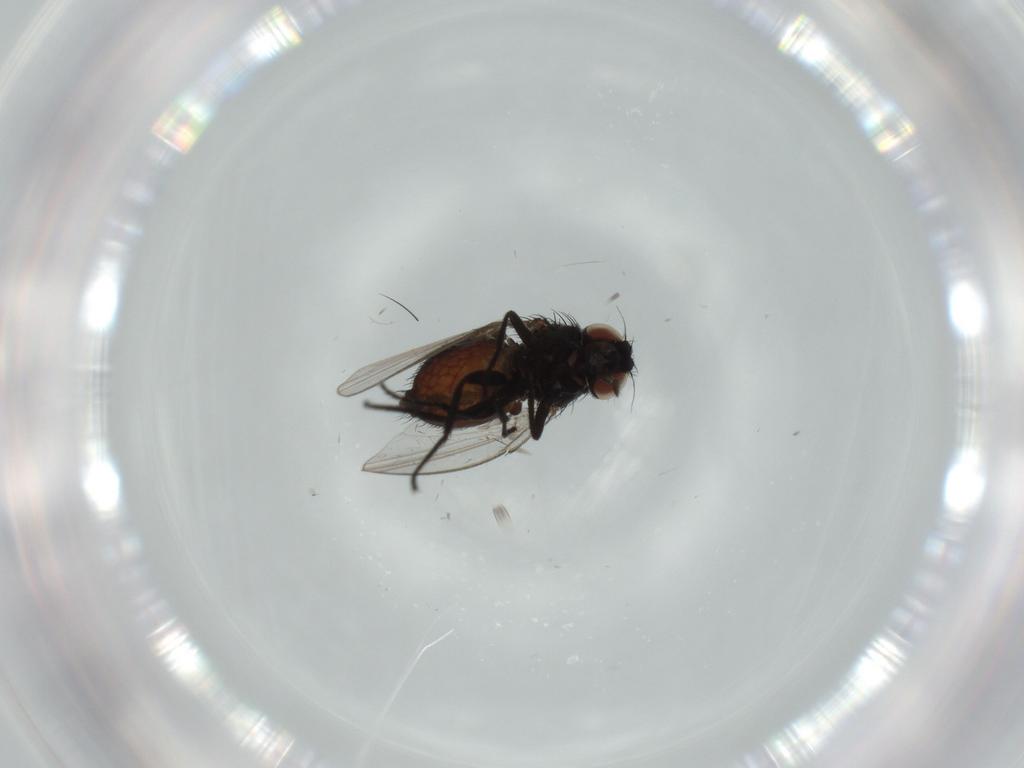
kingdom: Animalia
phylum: Arthropoda
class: Insecta
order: Diptera
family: Milichiidae
